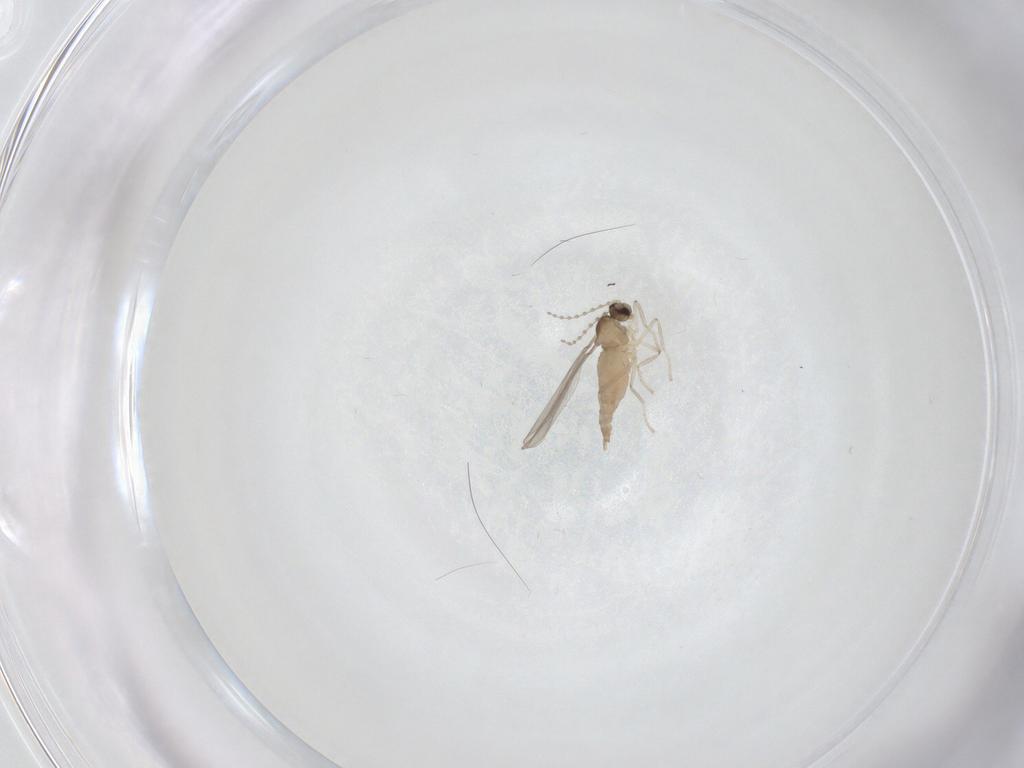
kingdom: Animalia
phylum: Arthropoda
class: Insecta
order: Diptera
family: Cecidomyiidae
